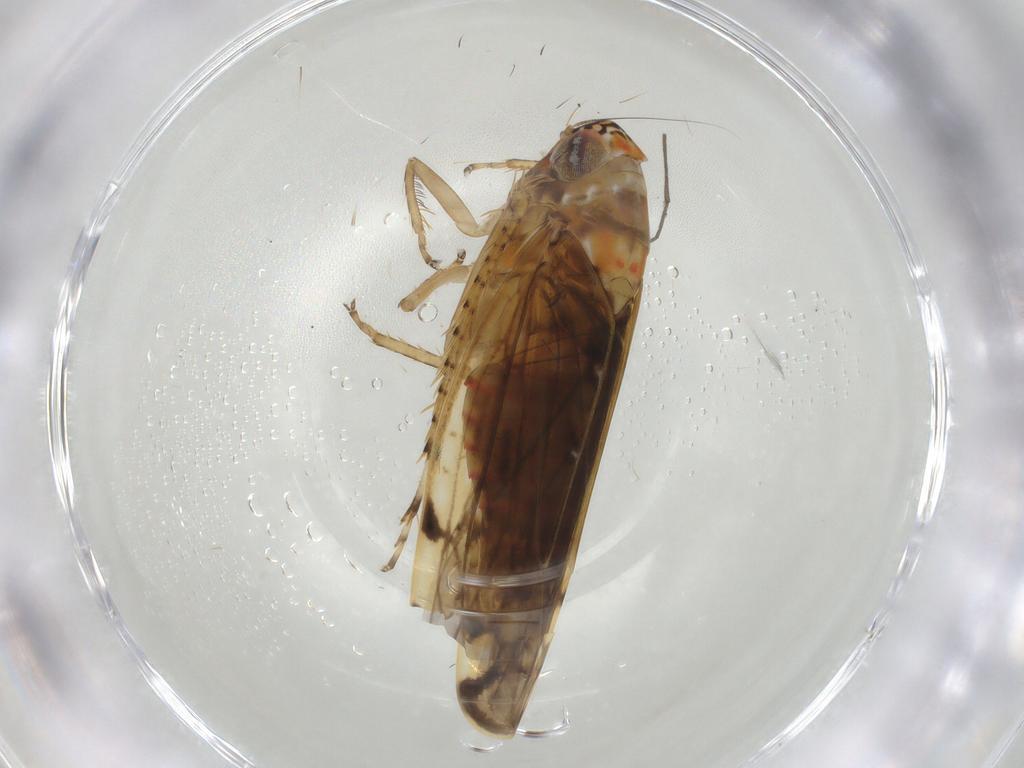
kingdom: Animalia
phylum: Arthropoda
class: Insecta
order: Hemiptera
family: Cicadellidae
